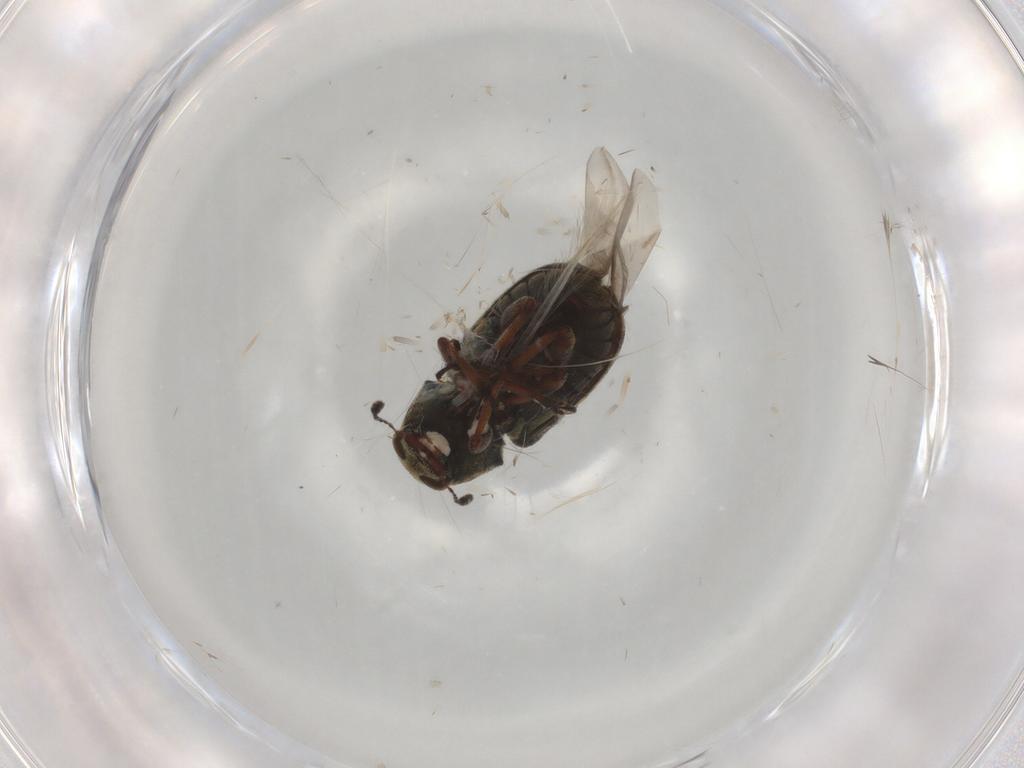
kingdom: Animalia
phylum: Arthropoda
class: Insecta
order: Coleoptera
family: Anthribidae
